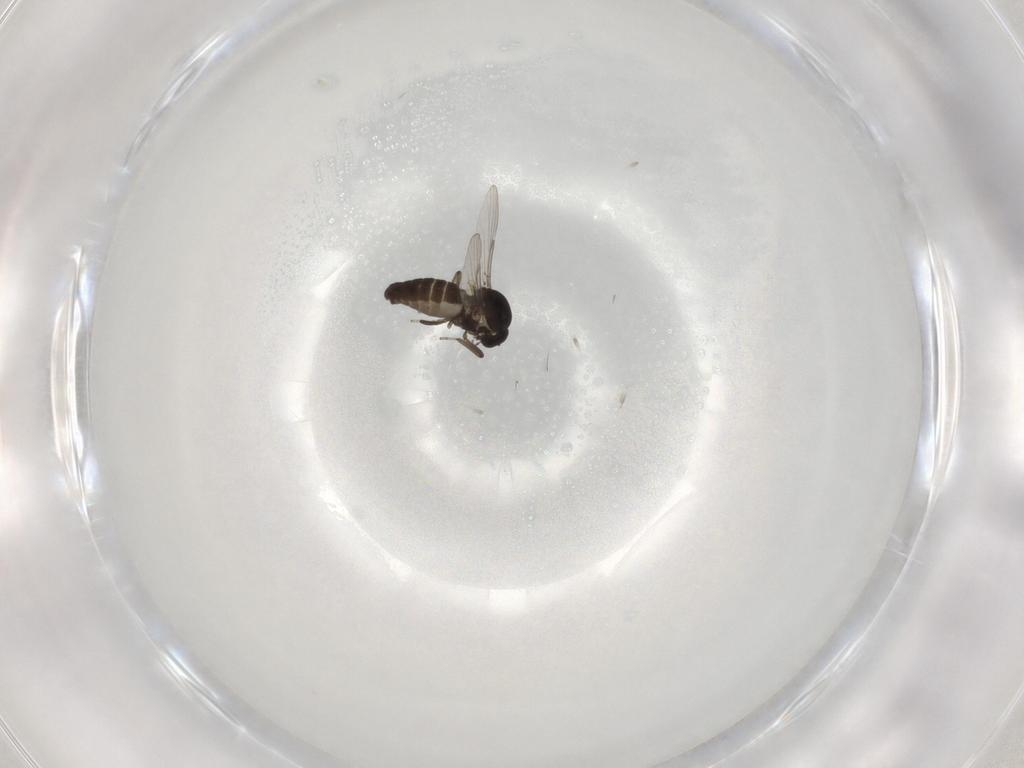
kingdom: Animalia
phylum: Arthropoda
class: Insecta
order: Diptera
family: Ceratopogonidae
